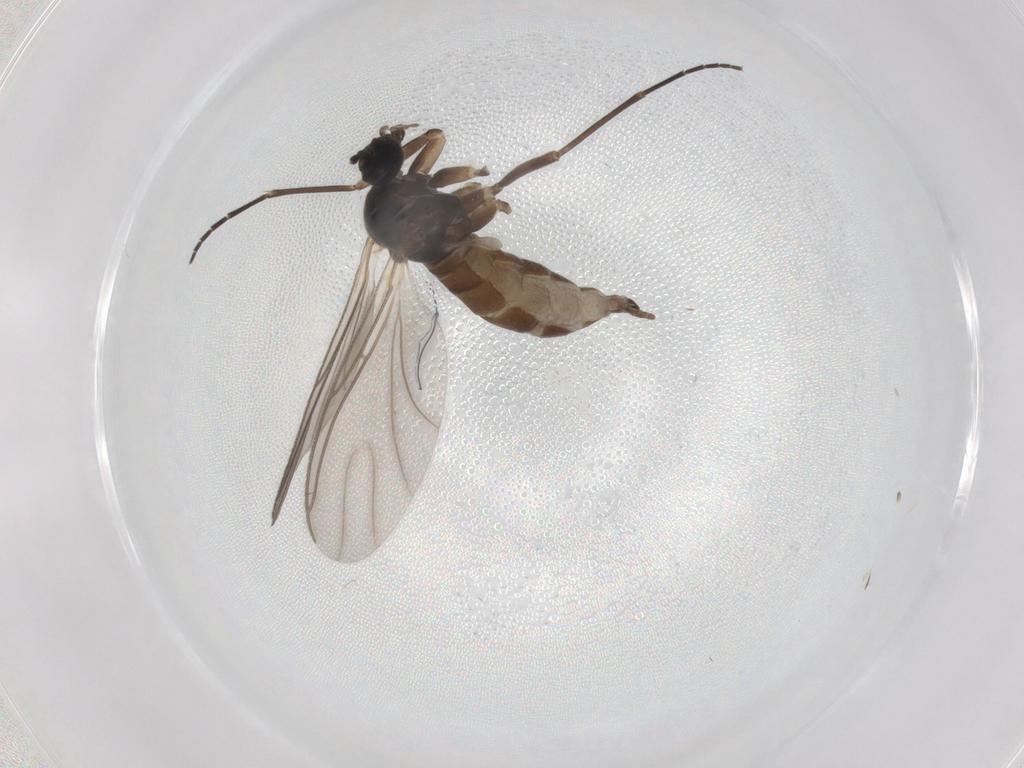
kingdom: Animalia
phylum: Arthropoda
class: Insecta
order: Diptera
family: Sciaridae
